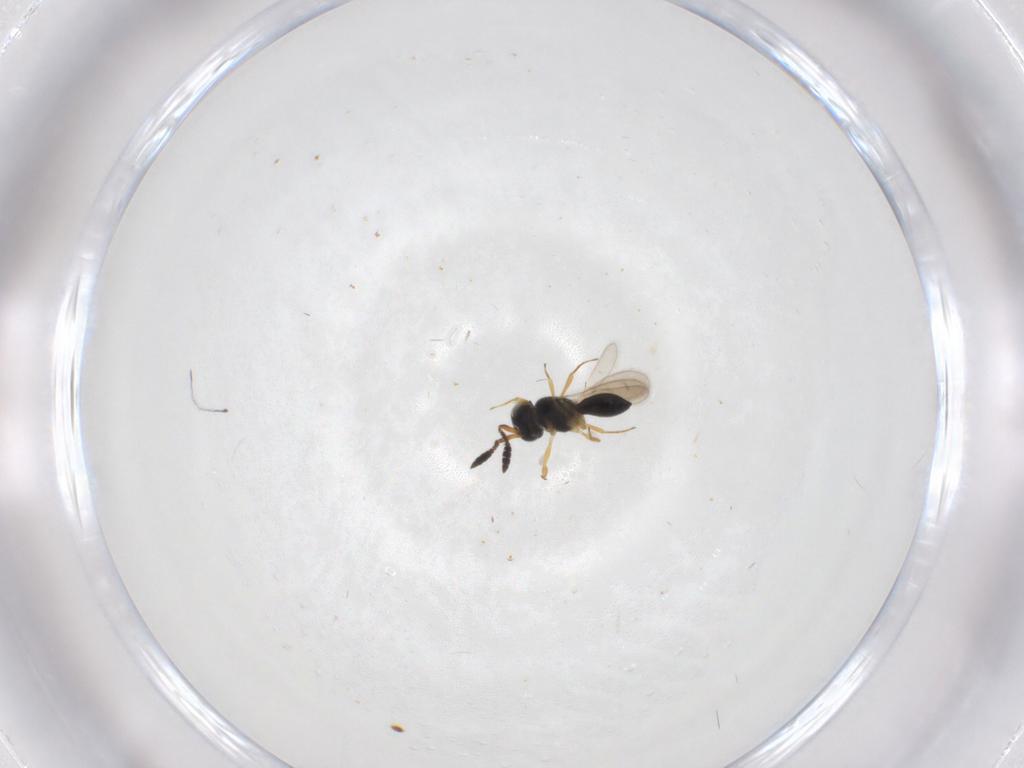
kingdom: Animalia
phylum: Arthropoda
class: Insecta
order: Hymenoptera
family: Scelionidae
